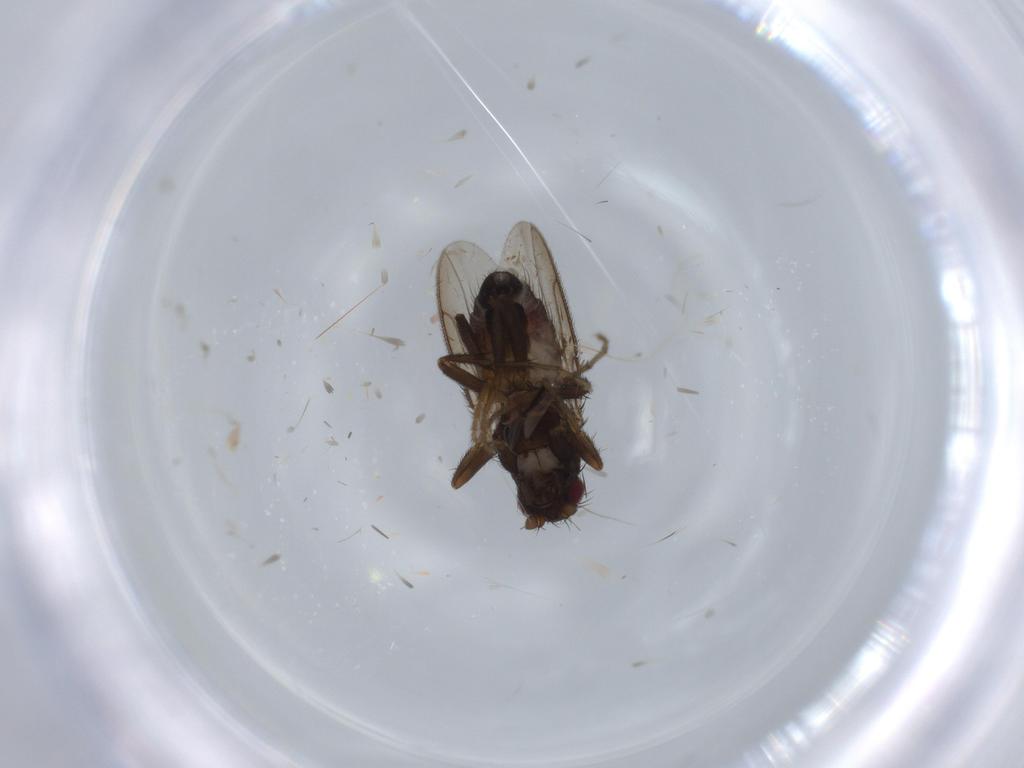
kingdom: Animalia
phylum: Arthropoda
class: Insecta
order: Diptera
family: Sphaeroceridae
